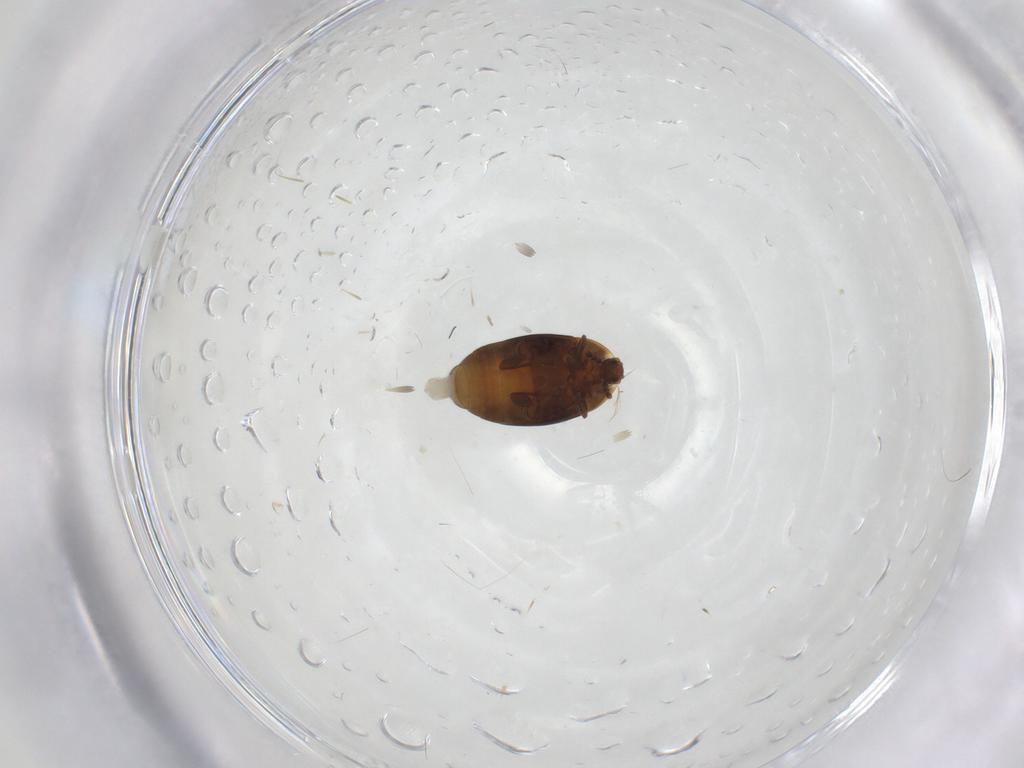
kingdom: Animalia
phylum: Arthropoda
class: Insecta
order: Coleoptera
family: Corylophidae
